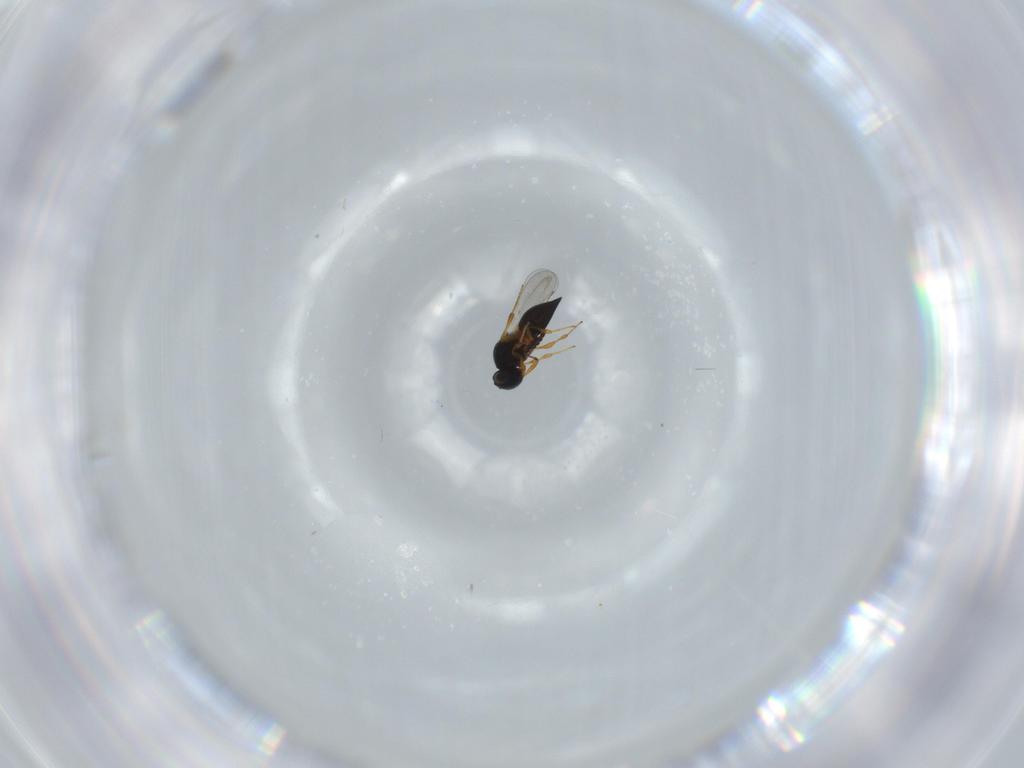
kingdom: Animalia
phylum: Arthropoda
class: Insecta
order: Hymenoptera
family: Platygastridae
